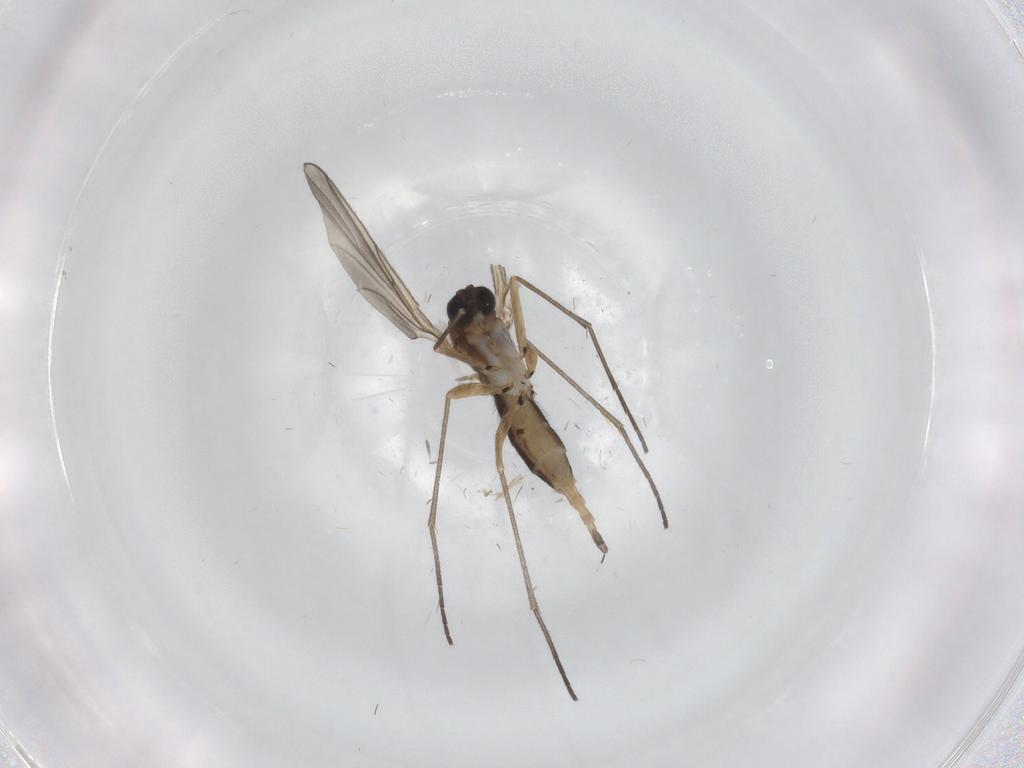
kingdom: Animalia
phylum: Arthropoda
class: Insecta
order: Diptera
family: Sciaridae
